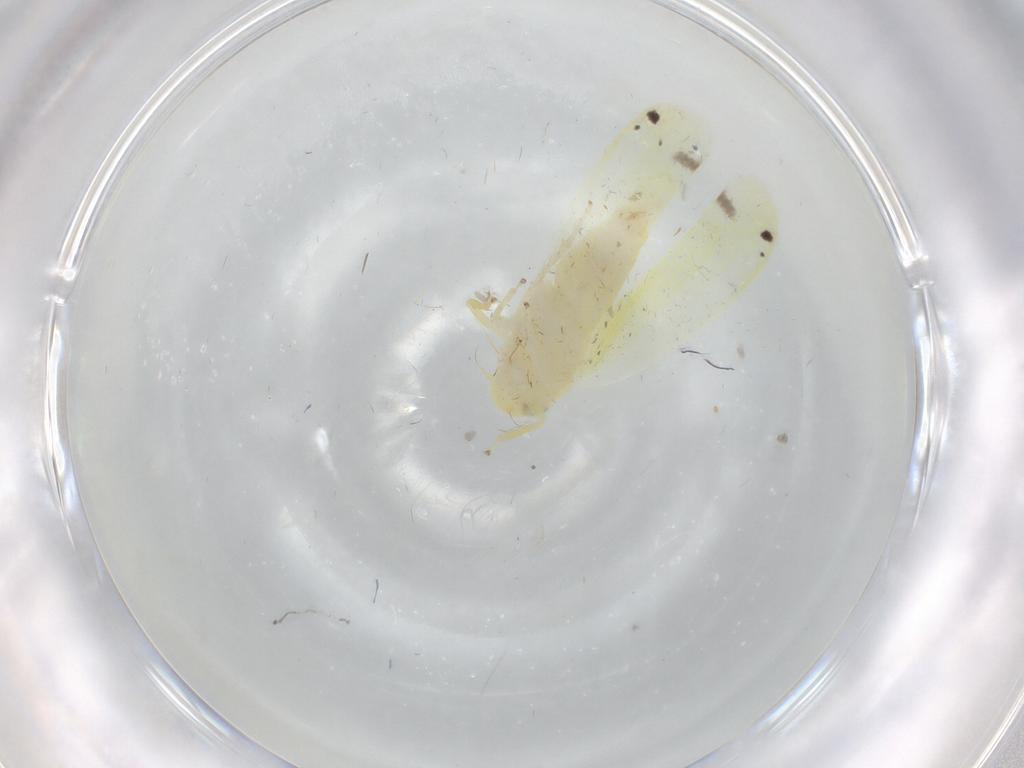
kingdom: Animalia
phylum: Arthropoda
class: Insecta
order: Hemiptera
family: Cicadellidae
